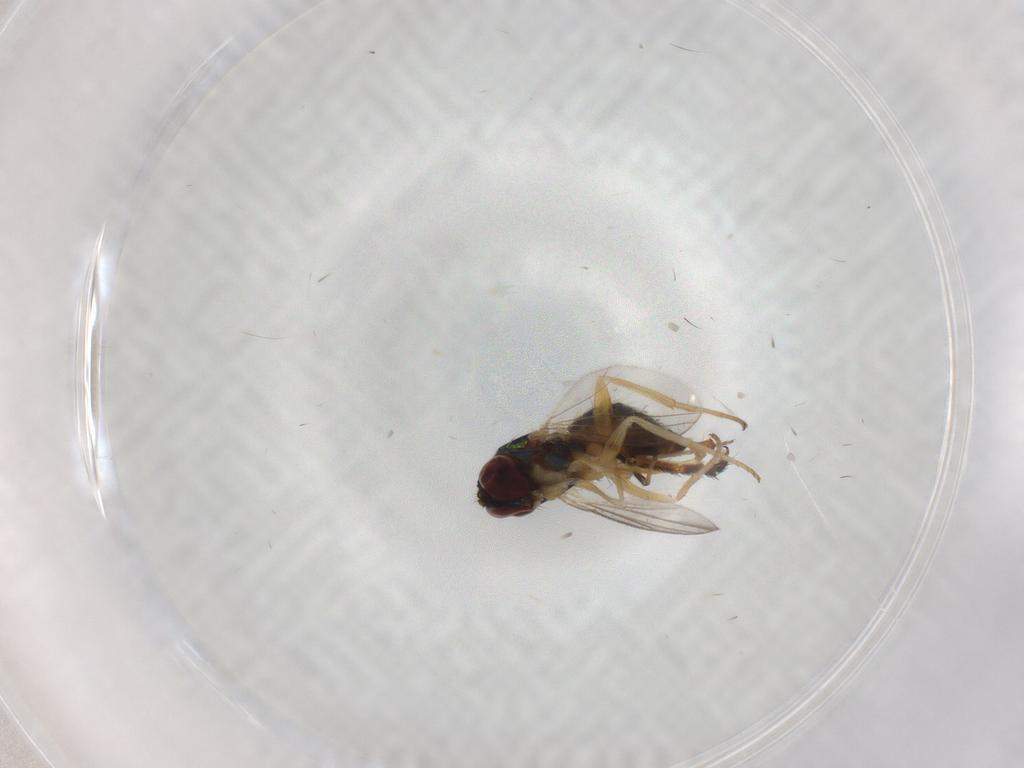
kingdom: Animalia
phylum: Arthropoda
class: Insecta
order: Diptera
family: Dolichopodidae
